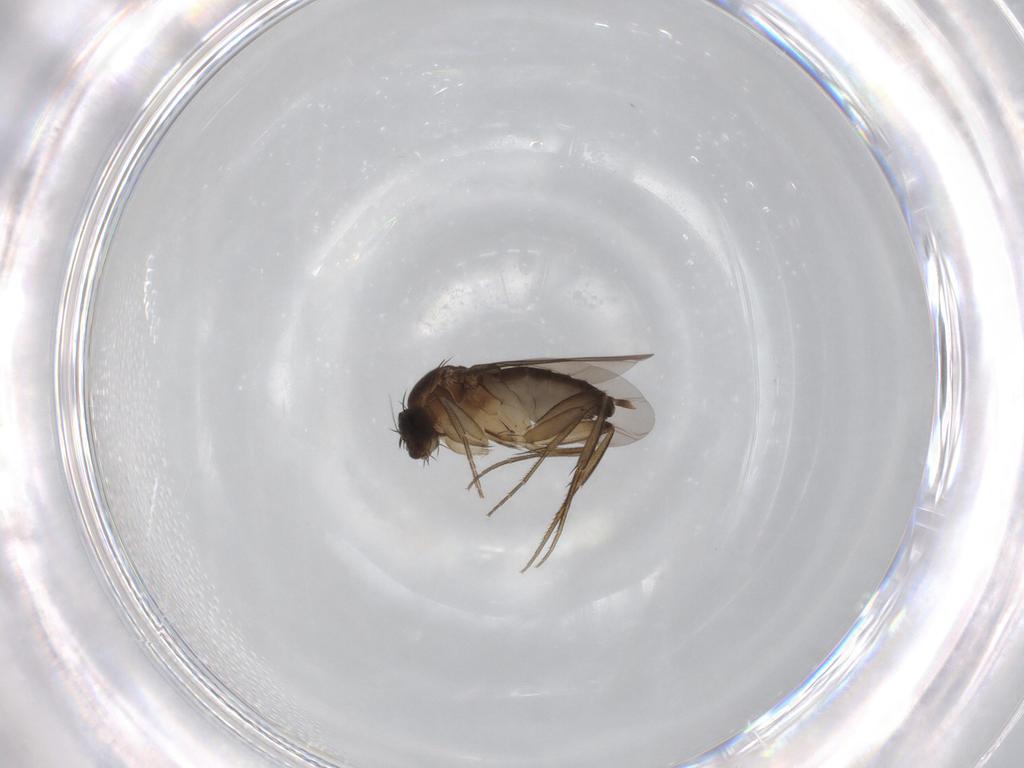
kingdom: Animalia
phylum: Arthropoda
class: Insecta
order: Diptera
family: Phoridae
